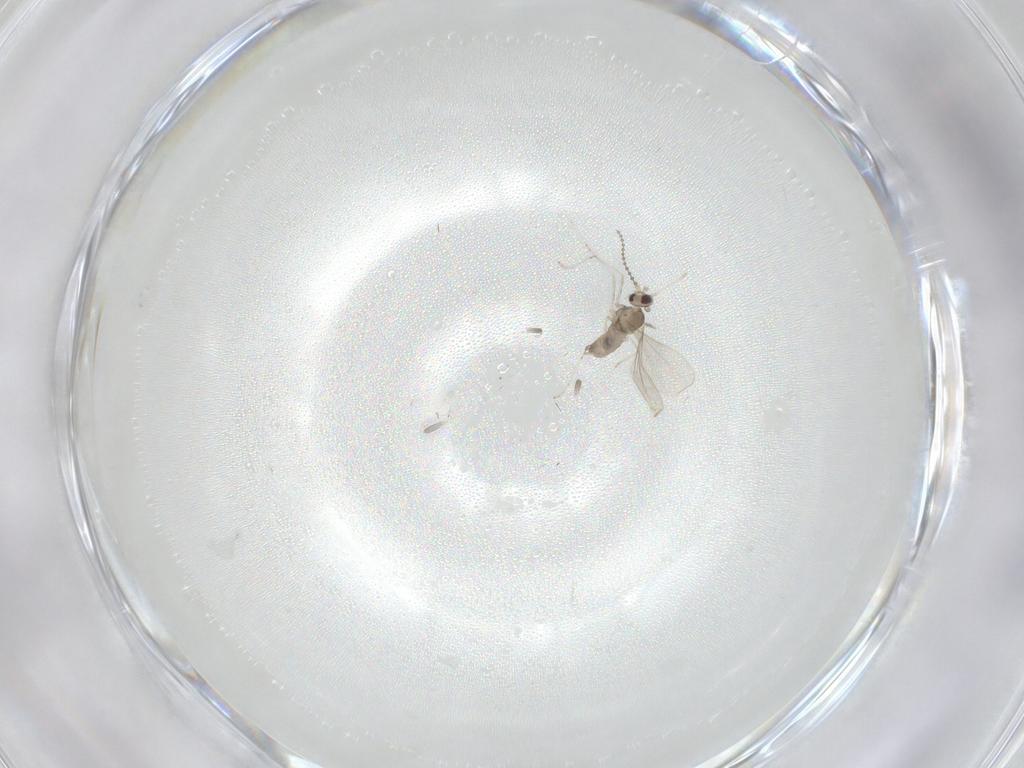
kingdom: Animalia
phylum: Arthropoda
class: Insecta
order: Diptera
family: Cecidomyiidae
